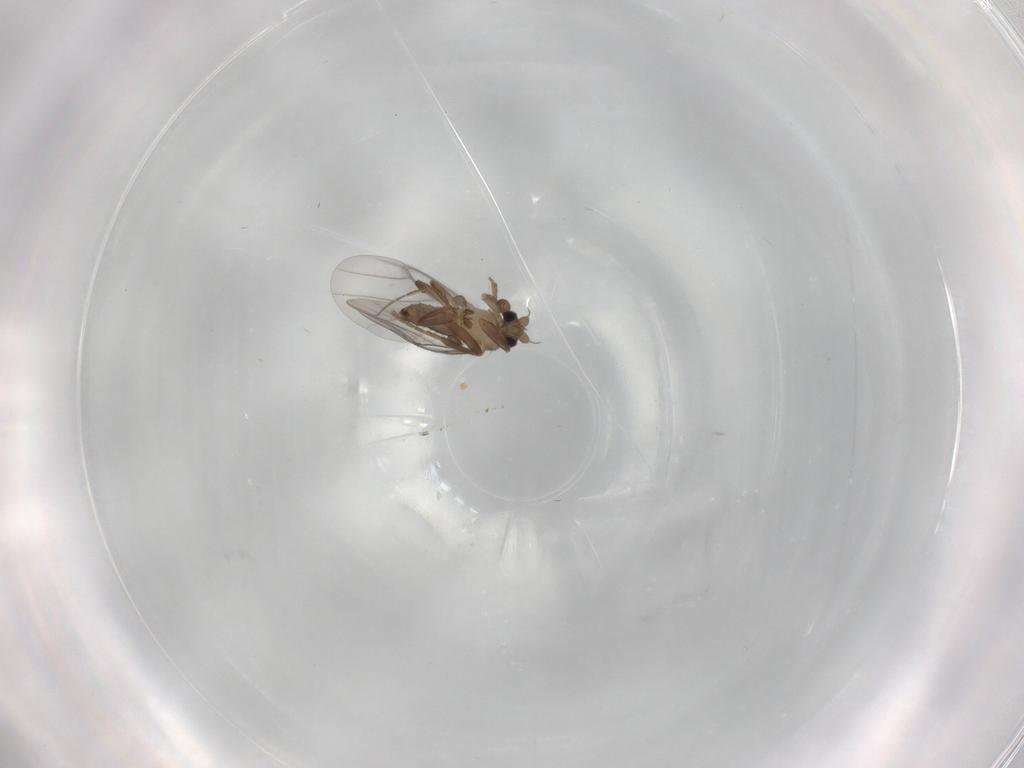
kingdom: Animalia
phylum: Arthropoda
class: Insecta
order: Diptera
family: Phoridae
